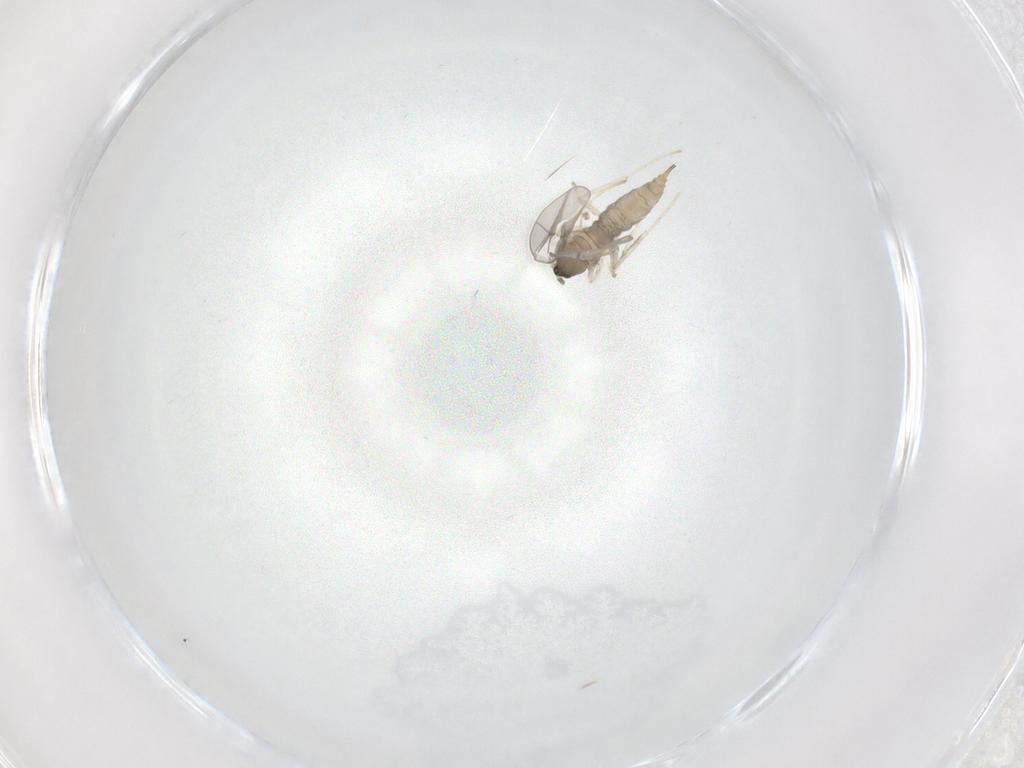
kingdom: Animalia
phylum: Arthropoda
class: Insecta
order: Diptera
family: Cecidomyiidae
